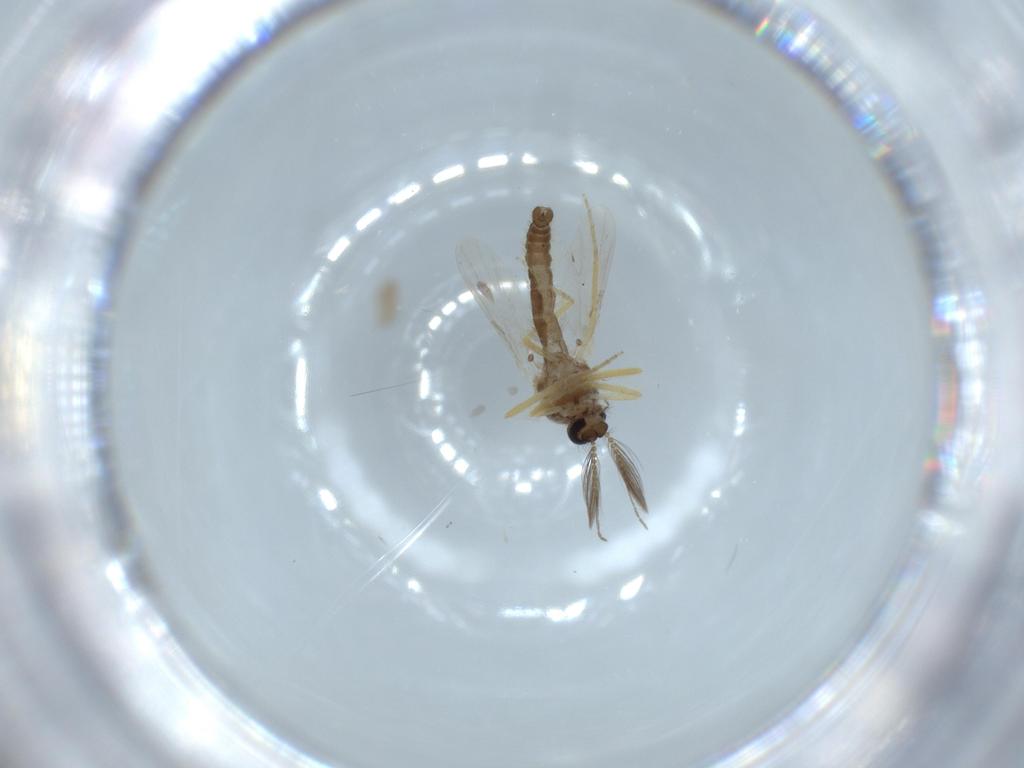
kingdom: Animalia
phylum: Arthropoda
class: Insecta
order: Diptera
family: Ceratopogonidae
